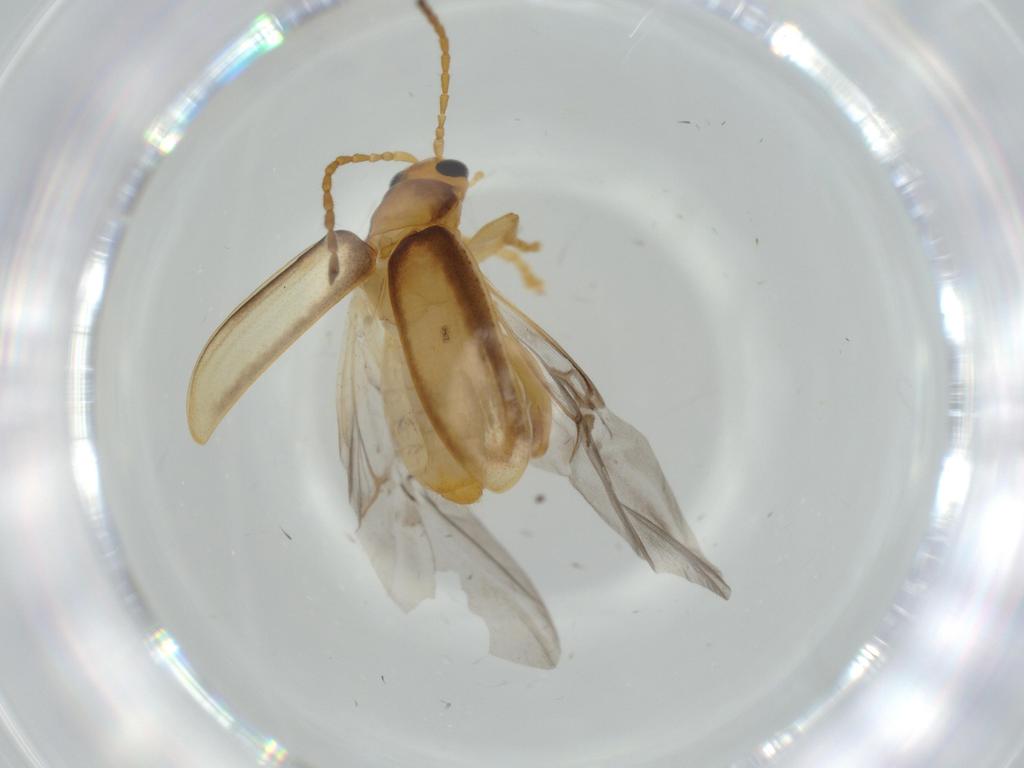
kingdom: Animalia
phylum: Arthropoda
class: Insecta
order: Coleoptera
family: Chrysomelidae
